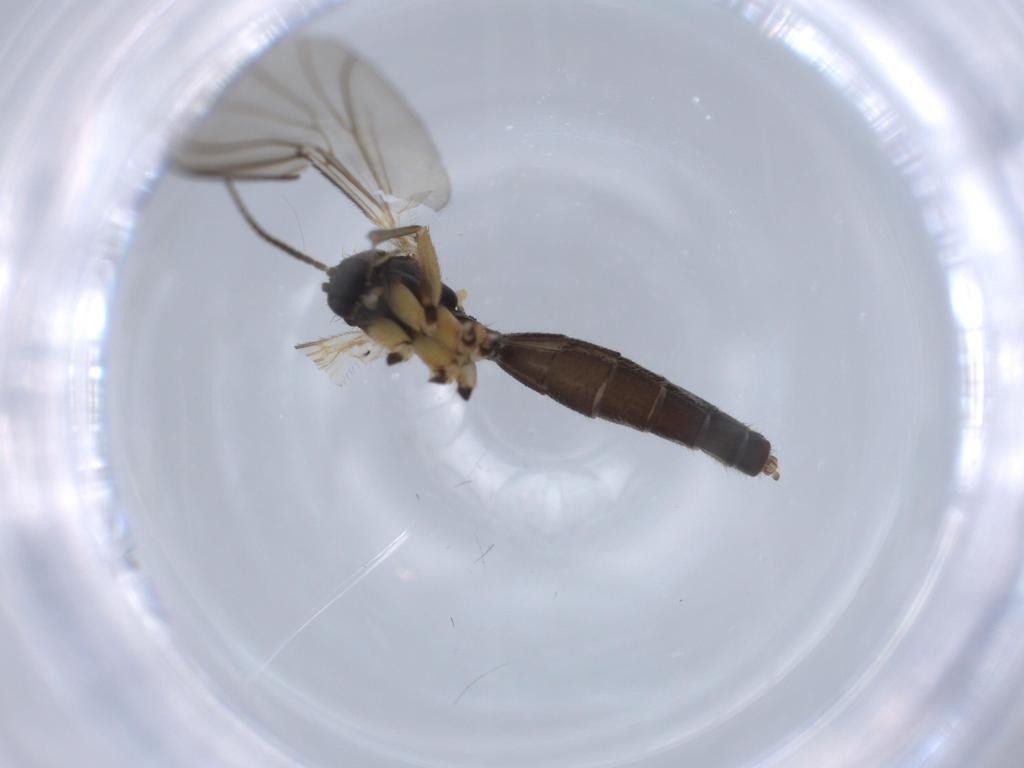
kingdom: Animalia
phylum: Arthropoda
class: Insecta
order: Diptera
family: Mycetophilidae
